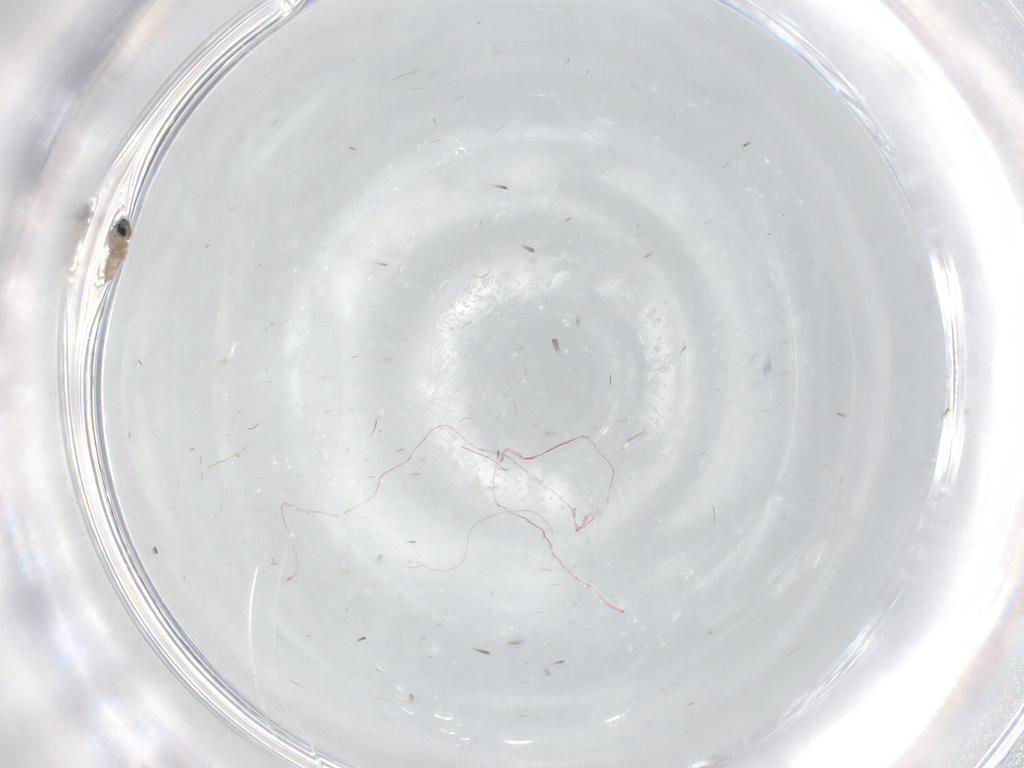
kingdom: Animalia
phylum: Arthropoda
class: Insecta
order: Diptera
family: Cecidomyiidae
